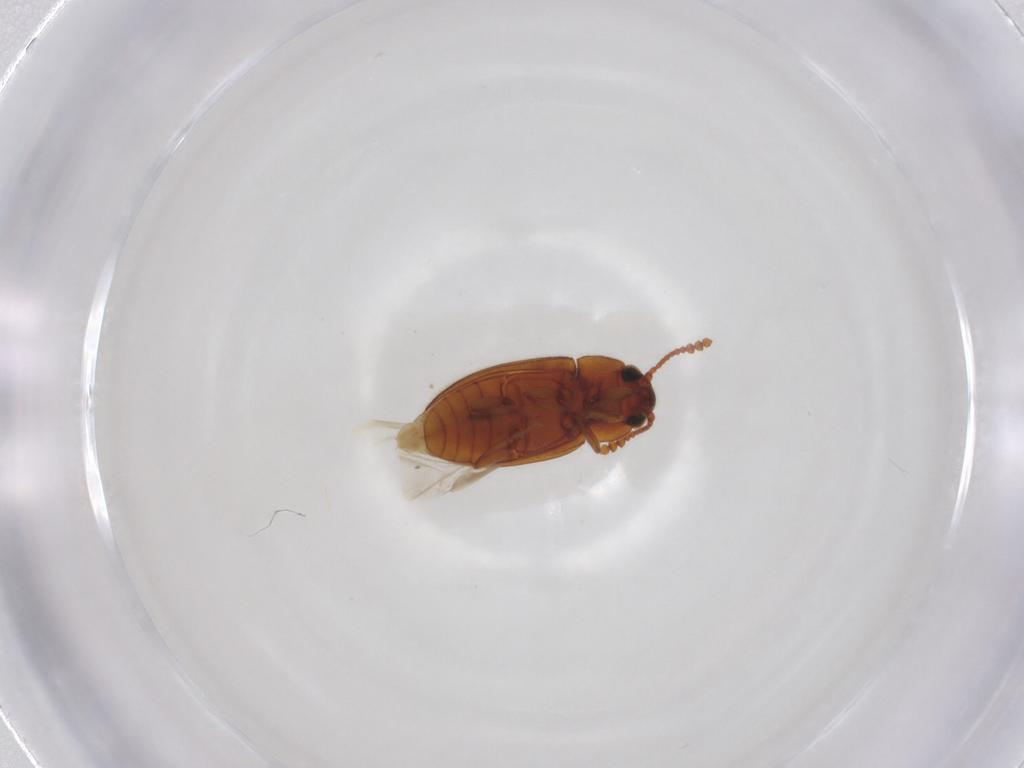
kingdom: Animalia
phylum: Arthropoda
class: Insecta
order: Coleoptera
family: Erotylidae
